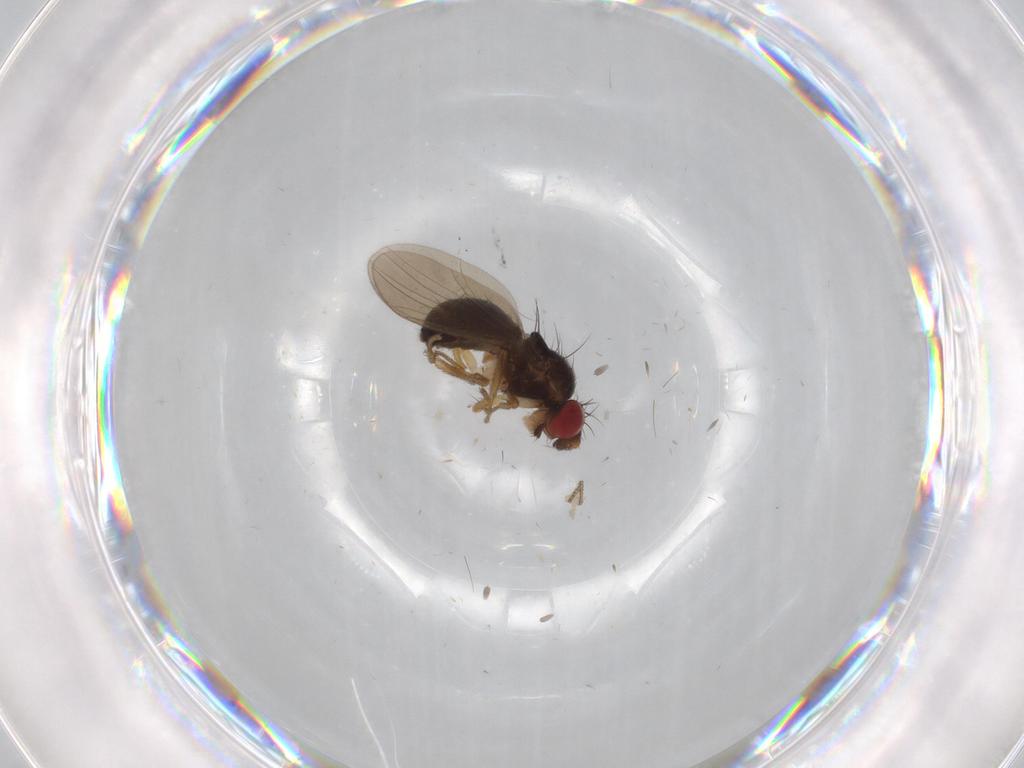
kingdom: Animalia
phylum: Arthropoda
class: Insecta
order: Diptera
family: Drosophilidae
